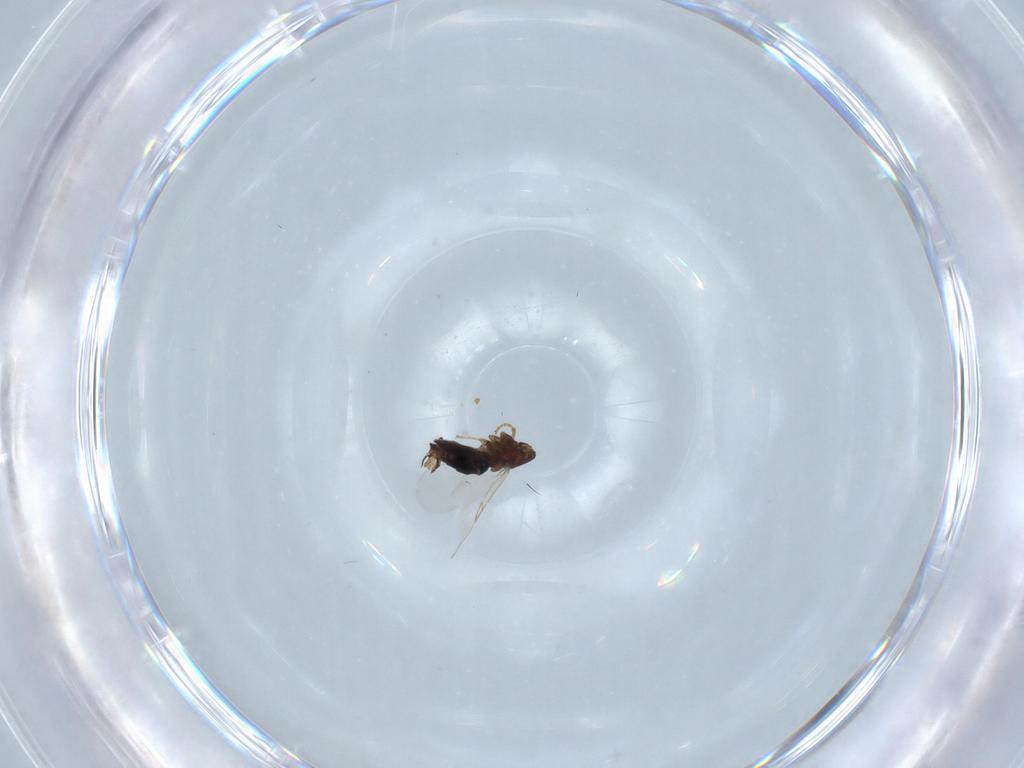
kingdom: Animalia
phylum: Arthropoda
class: Insecta
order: Diptera
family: Scatopsidae
